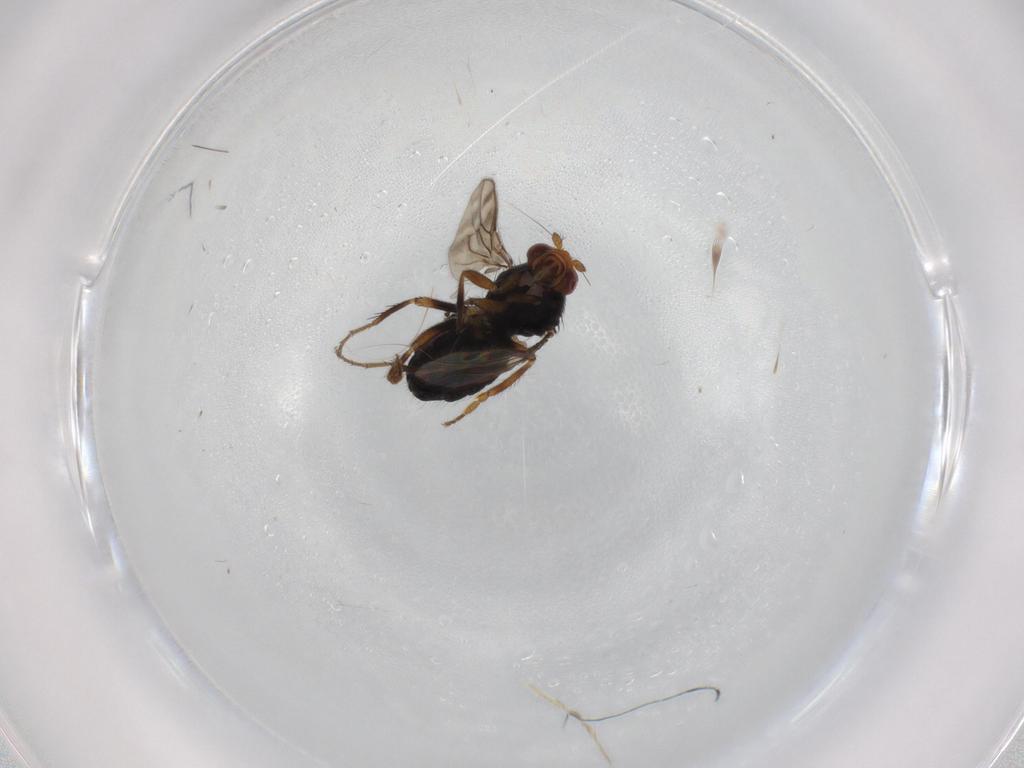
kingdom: Animalia
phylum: Arthropoda
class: Insecta
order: Diptera
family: Sphaeroceridae
